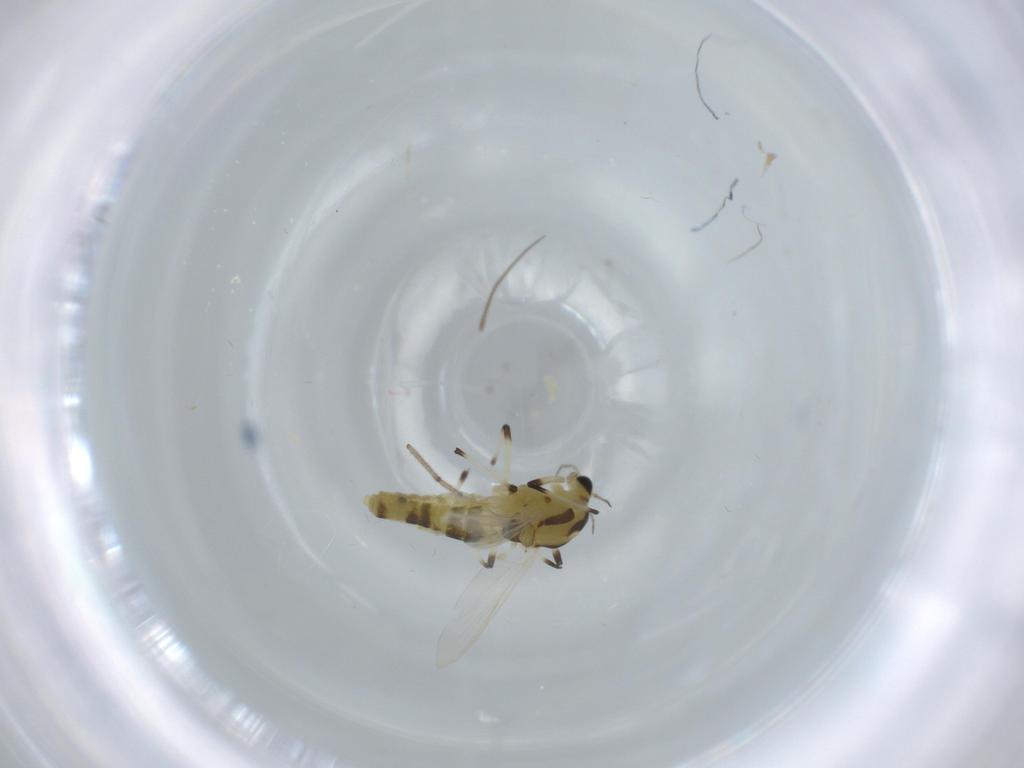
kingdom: Animalia
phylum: Arthropoda
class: Insecta
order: Diptera
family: Chironomidae
